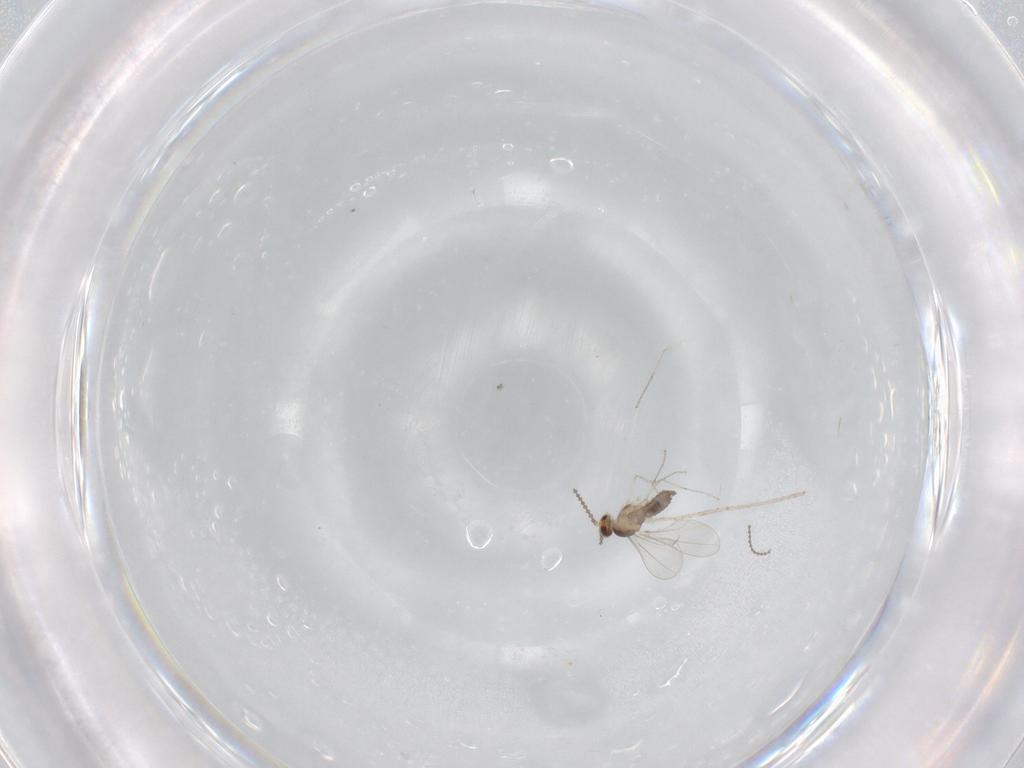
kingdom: Animalia
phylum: Arthropoda
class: Insecta
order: Diptera
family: Cecidomyiidae
